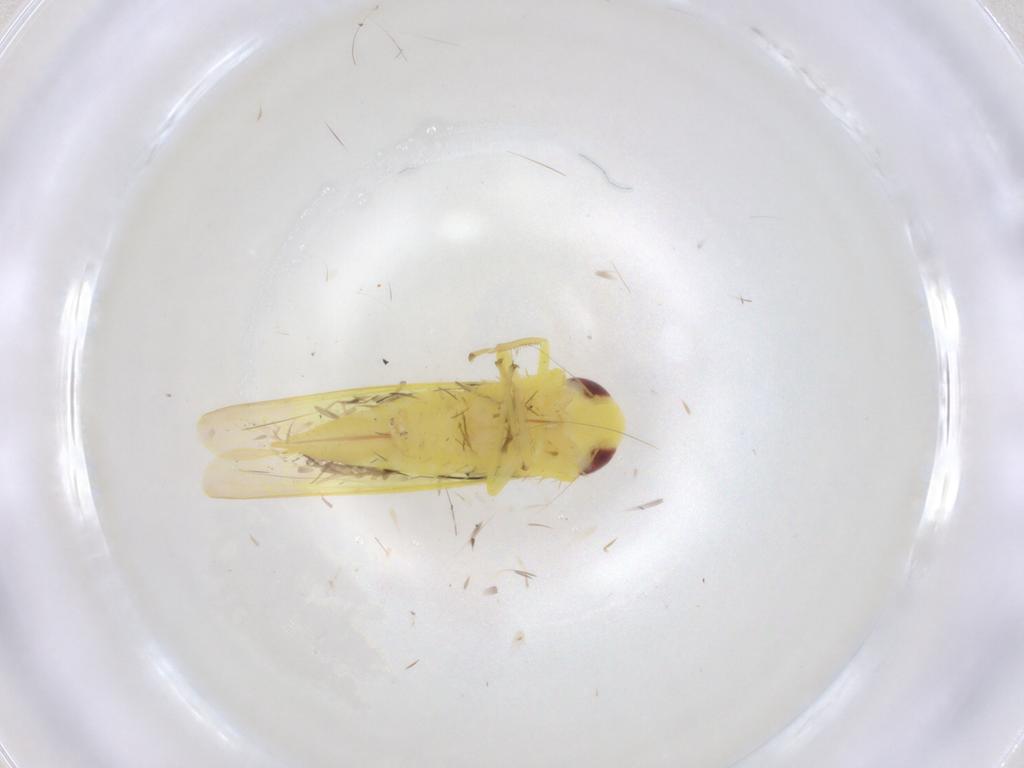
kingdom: Animalia
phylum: Arthropoda
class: Insecta
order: Hemiptera
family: Cicadellidae
